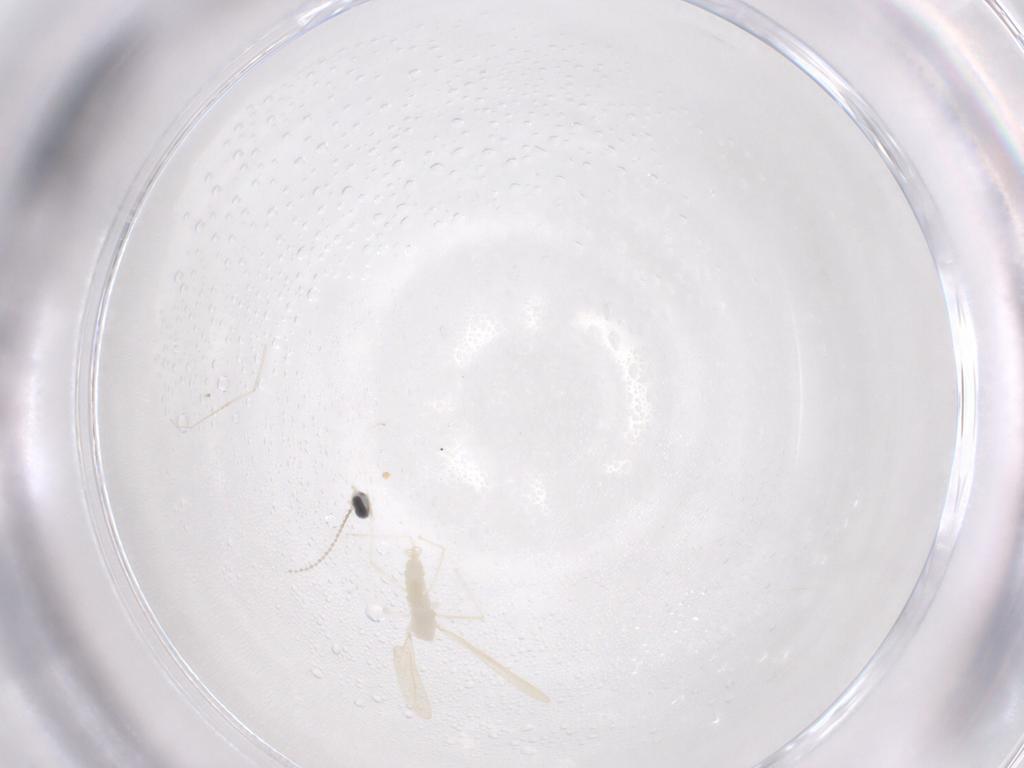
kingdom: Animalia
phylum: Arthropoda
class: Insecta
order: Diptera
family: Cecidomyiidae
